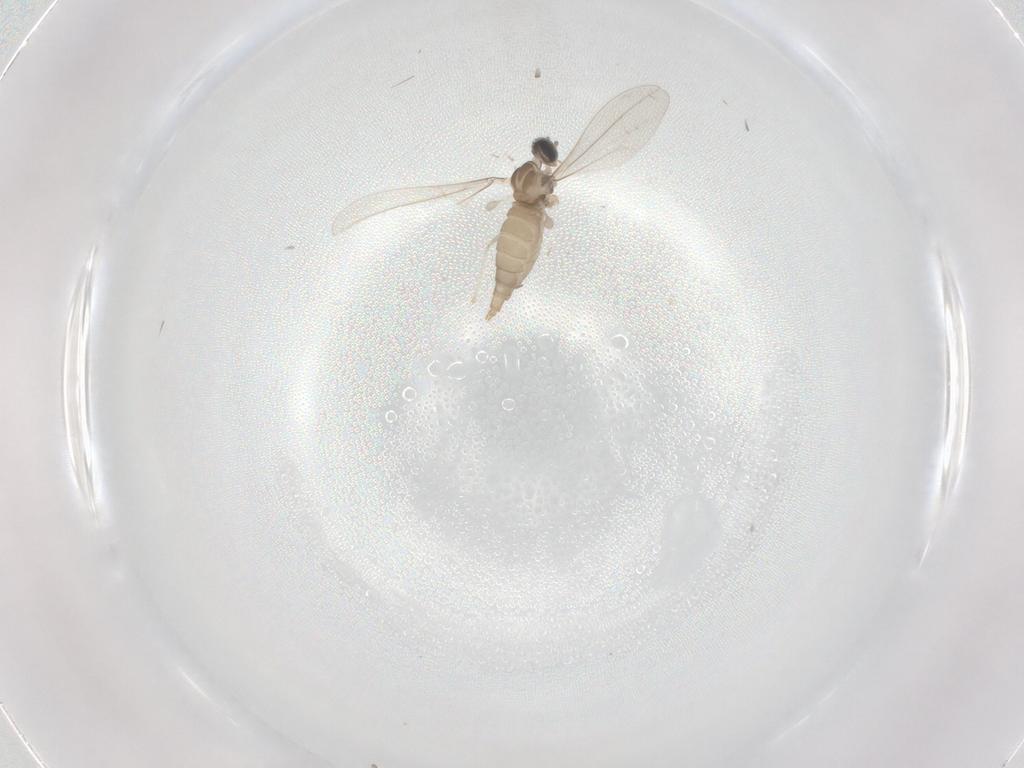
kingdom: Animalia
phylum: Arthropoda
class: Insecta
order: Diptera
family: Cecidomyiidae
